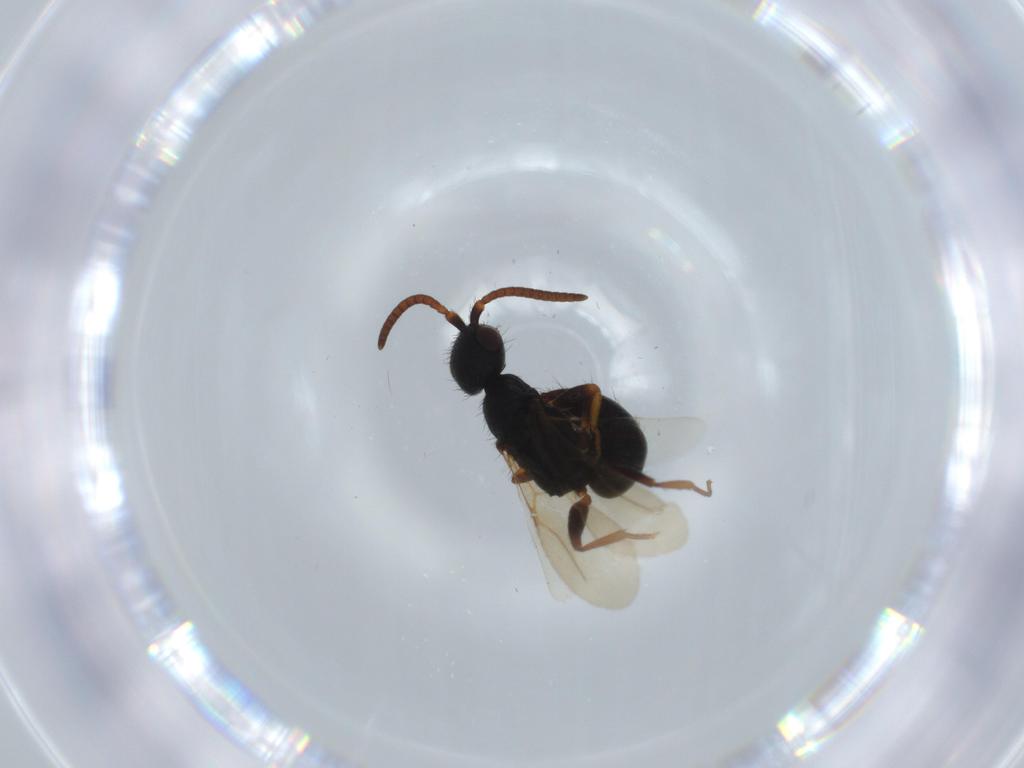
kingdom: Animalia
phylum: Arthropoda
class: Insecta
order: Hymenoptera
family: Bethylidae
